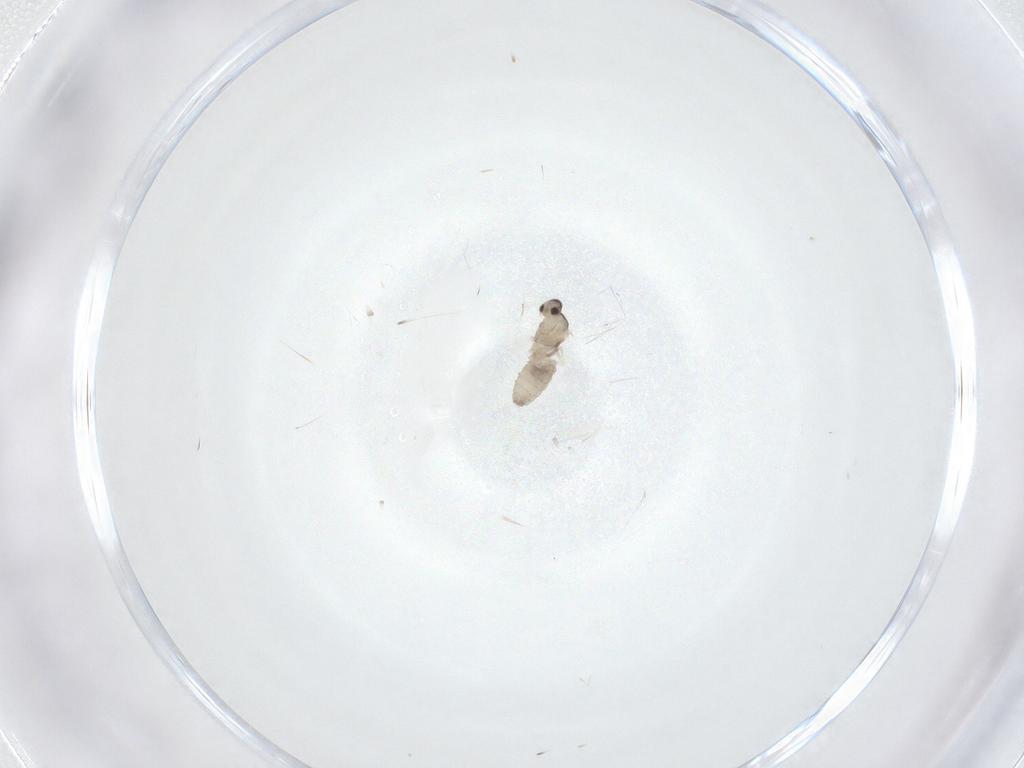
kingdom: Animalia
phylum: Arthropoda
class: Insecta
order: Diptera
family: Cecidomyiidae
